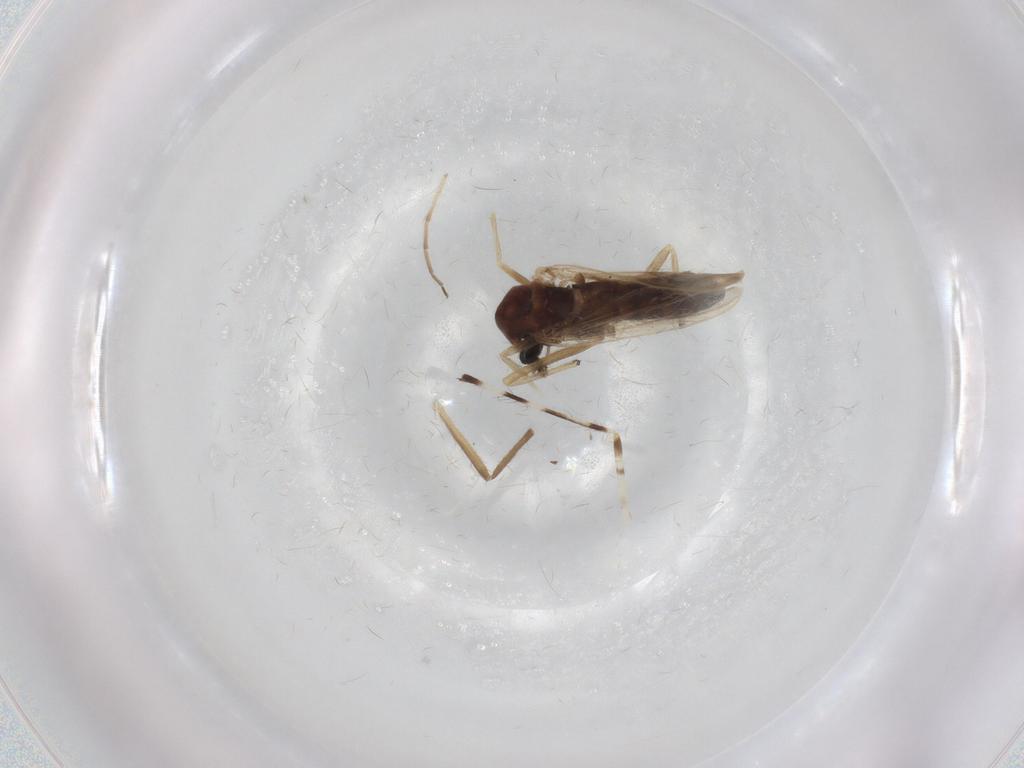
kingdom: Animalia
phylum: Arthropoda
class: Insecta
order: Diptera
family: Chironomidae
